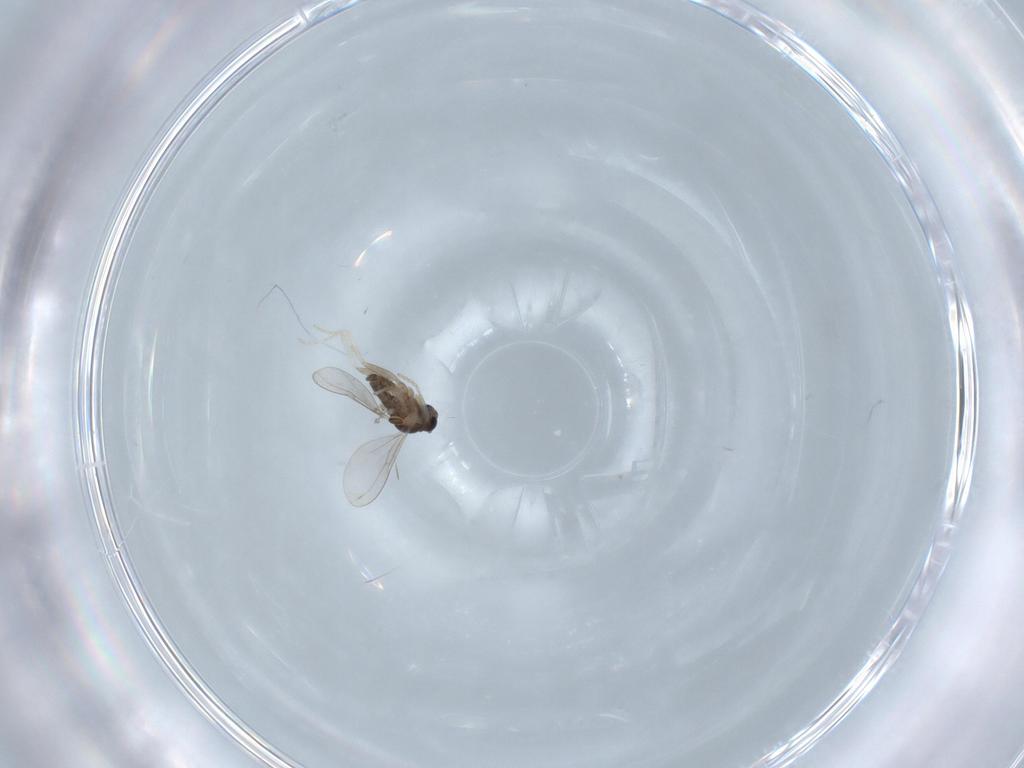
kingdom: Animalia
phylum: Arthropoda
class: Insecta
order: Diptera
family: Cecidomyiidae
